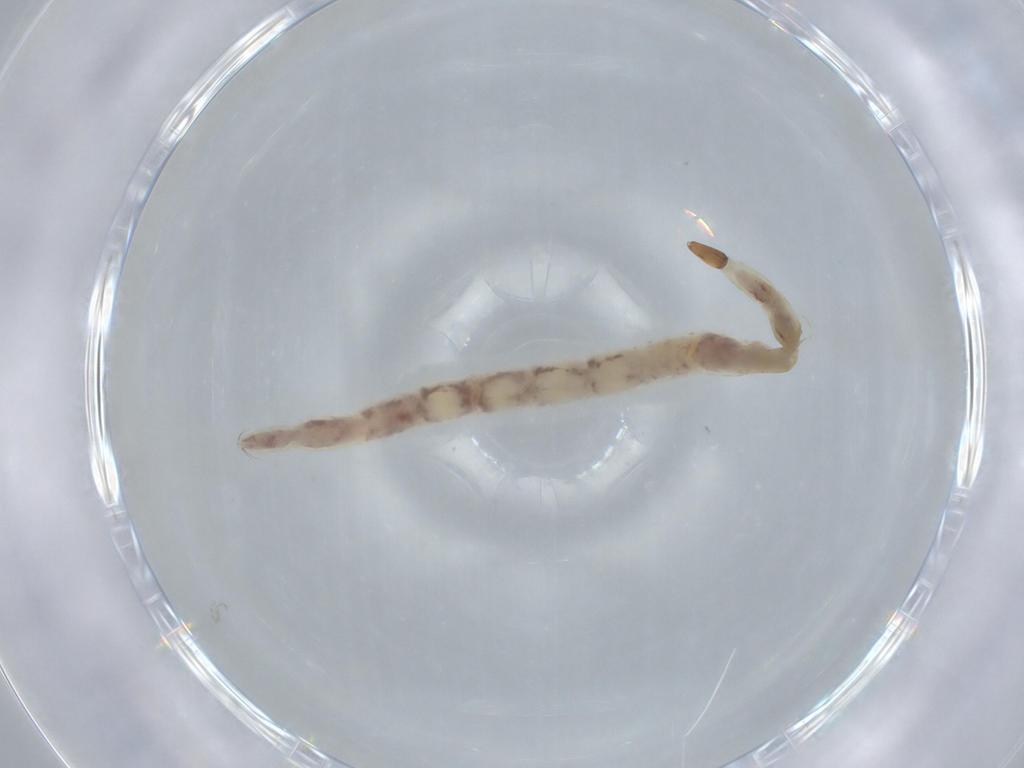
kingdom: Animalia
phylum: Arthropoda
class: Insecta
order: Diptera
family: Ceratopogonidae
